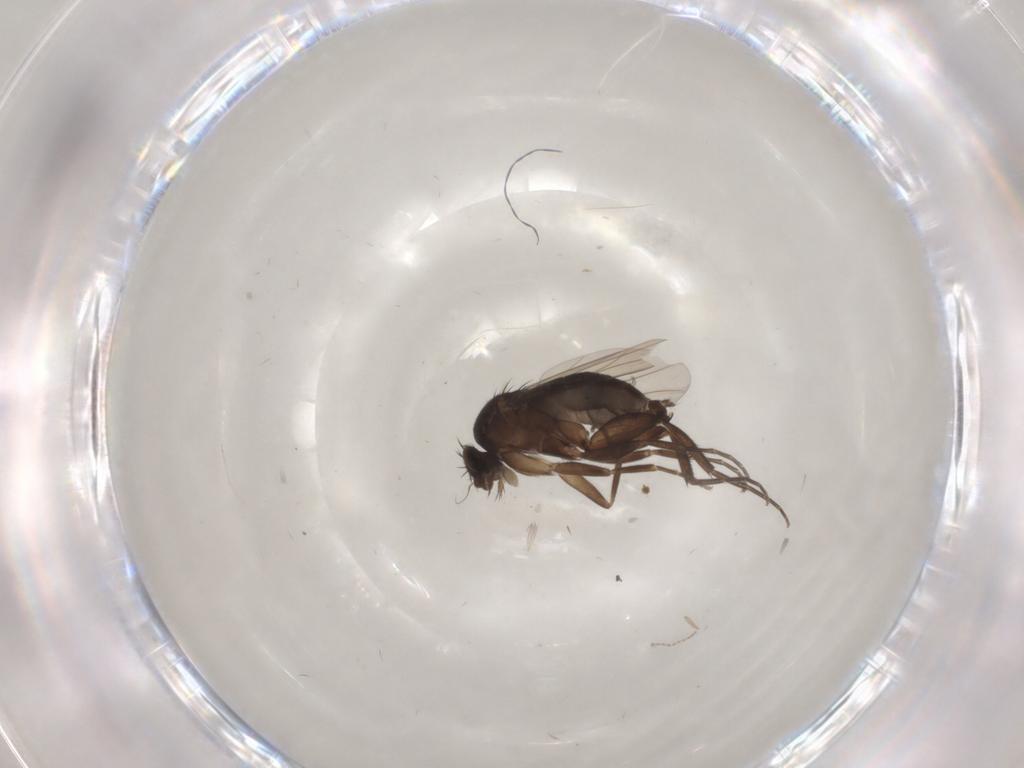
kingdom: Animalia
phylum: Arthropoda
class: Insecta
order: Diptera
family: Phoridae
